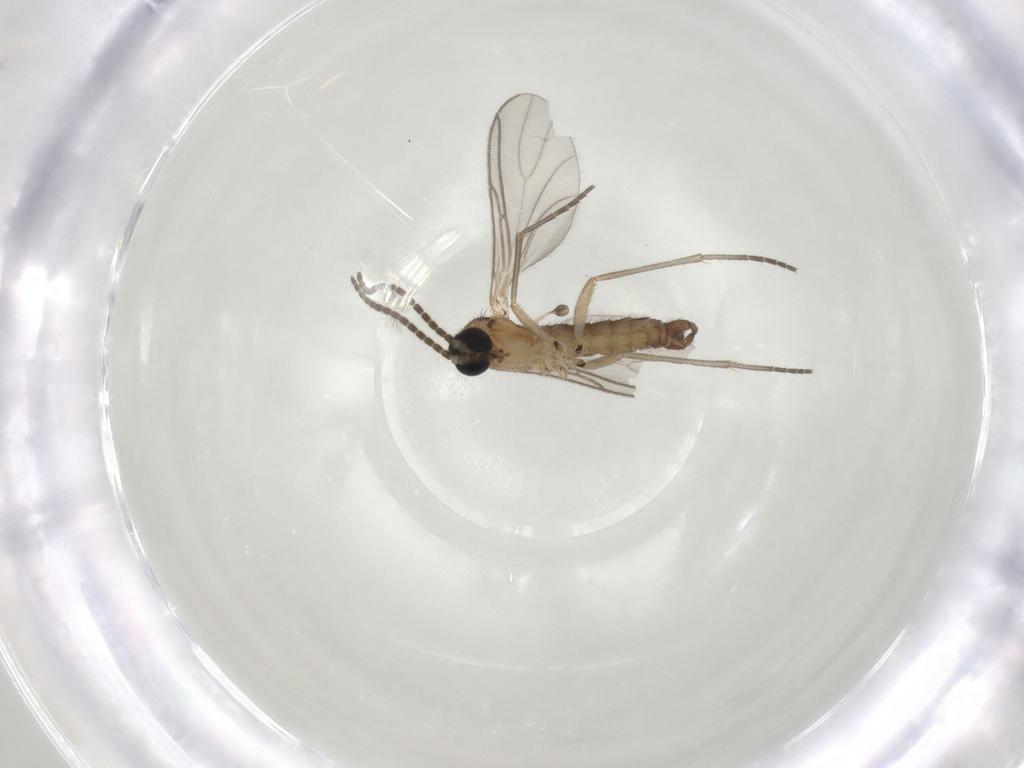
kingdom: Animalia
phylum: Arthropoda
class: Insecta
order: Diptera
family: Sciaridae
